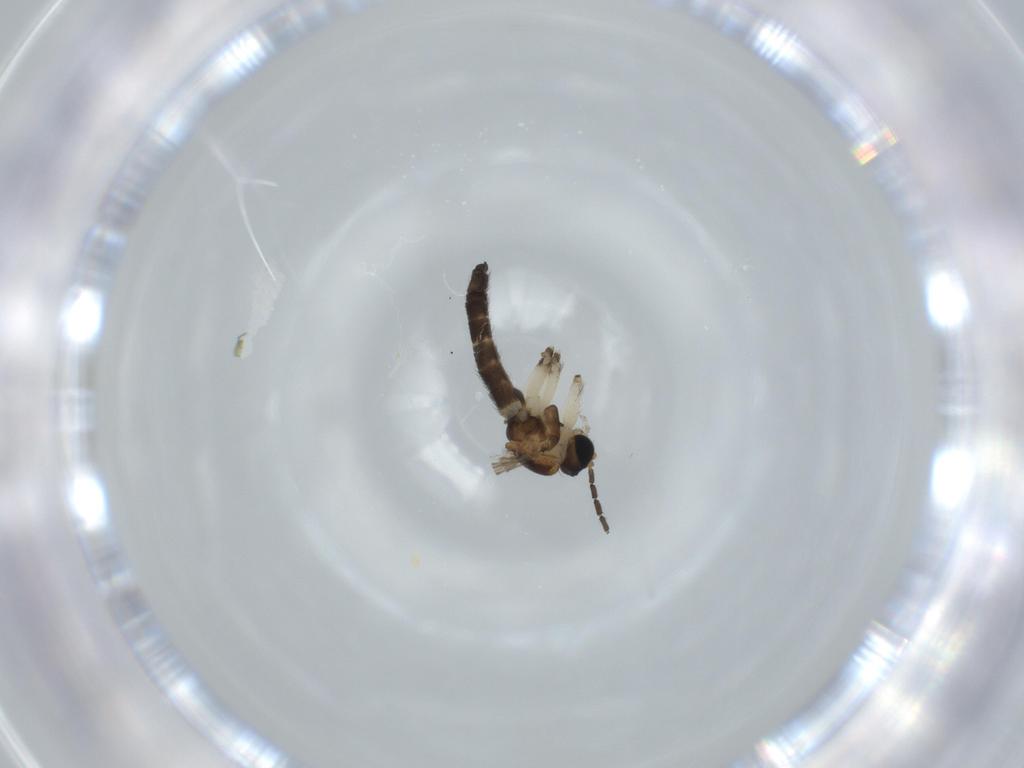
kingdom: Animalia
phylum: Arthropoda
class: Insecta
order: Diptera
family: Sciaridae
